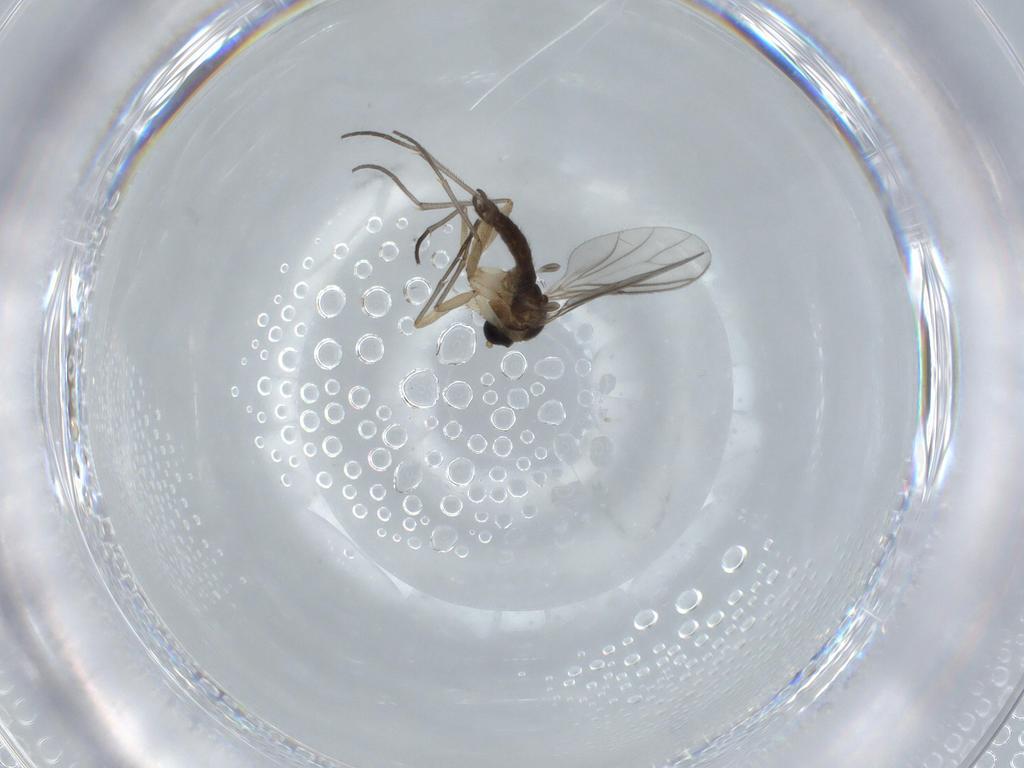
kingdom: Animalia
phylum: Arthropoda
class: Insecta
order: Diptera
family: Sciaridae
